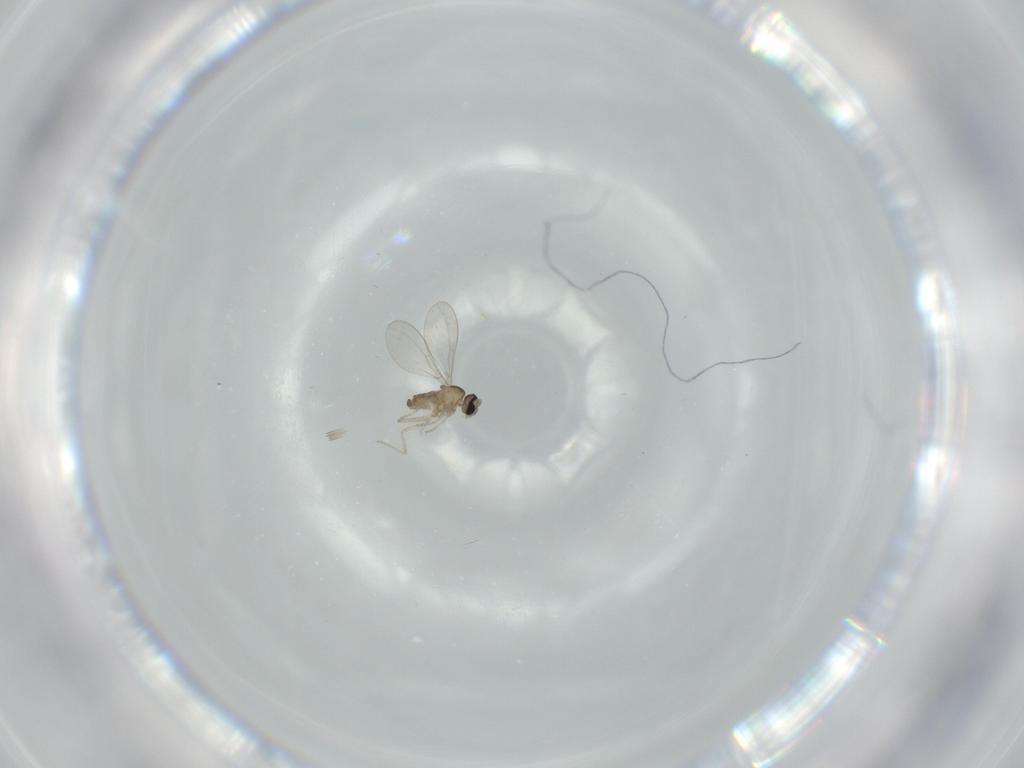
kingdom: Animalia
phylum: Arthropoda
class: Insecta
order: Diptera
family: Cecidomyiidae
